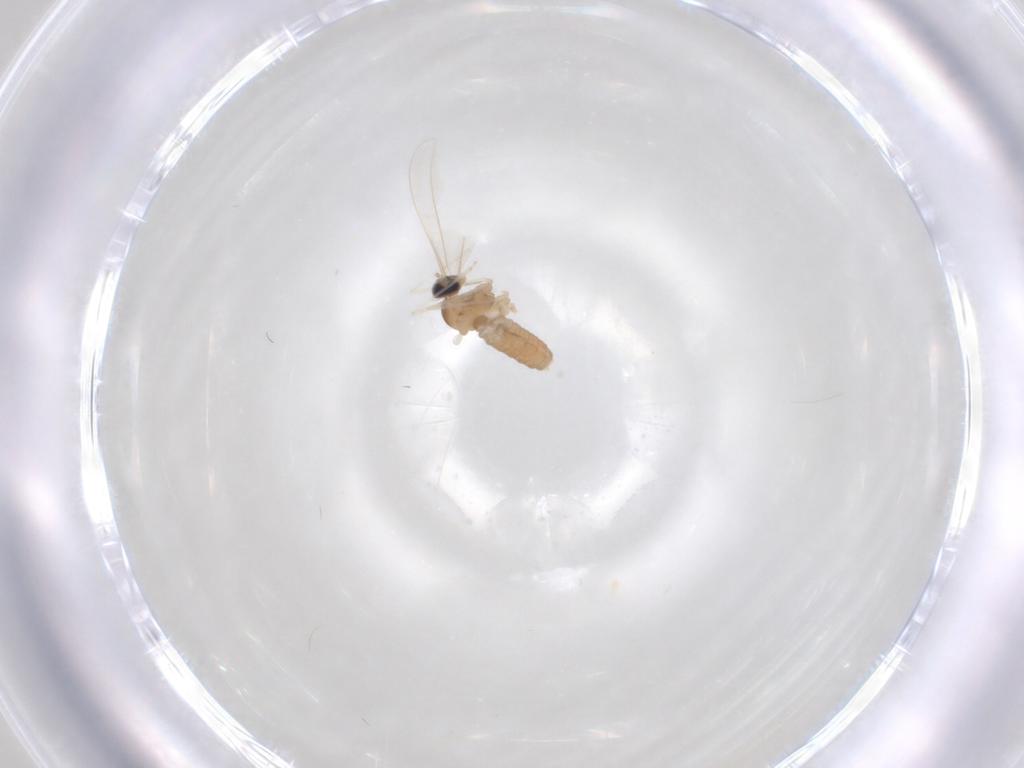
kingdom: Animalia
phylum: Arthropoda
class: Insecta
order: Diptera
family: Cecidomyiidae
